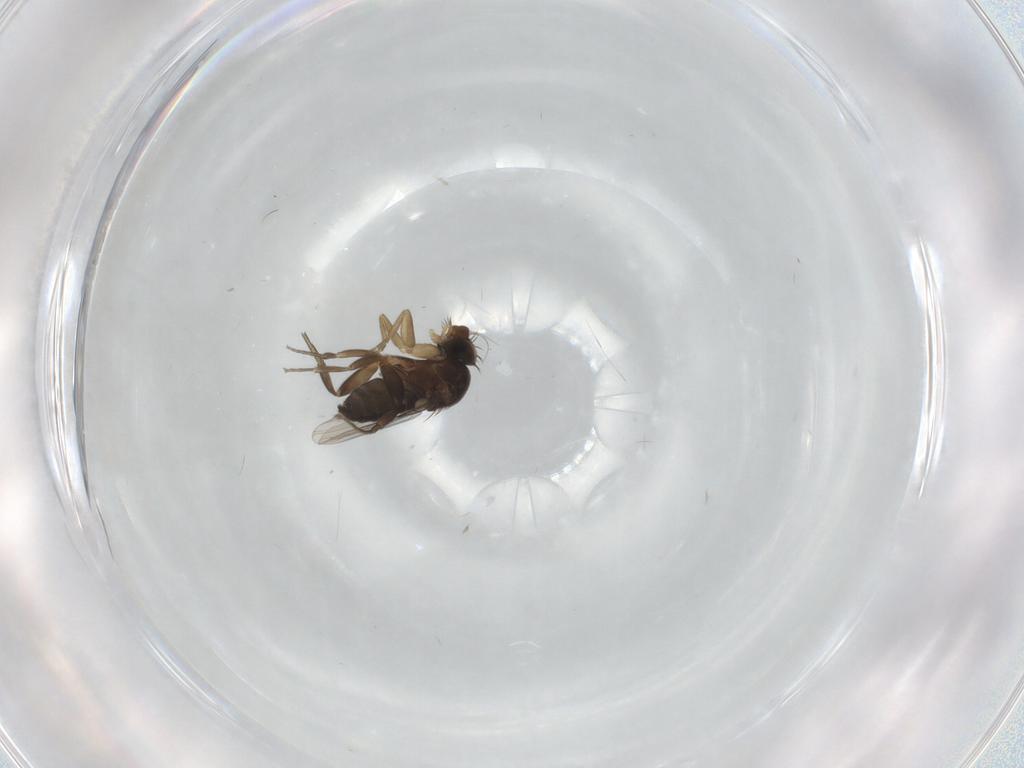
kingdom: Animalia
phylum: Arthropoda
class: Insecta
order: Diptera
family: Phoridae
